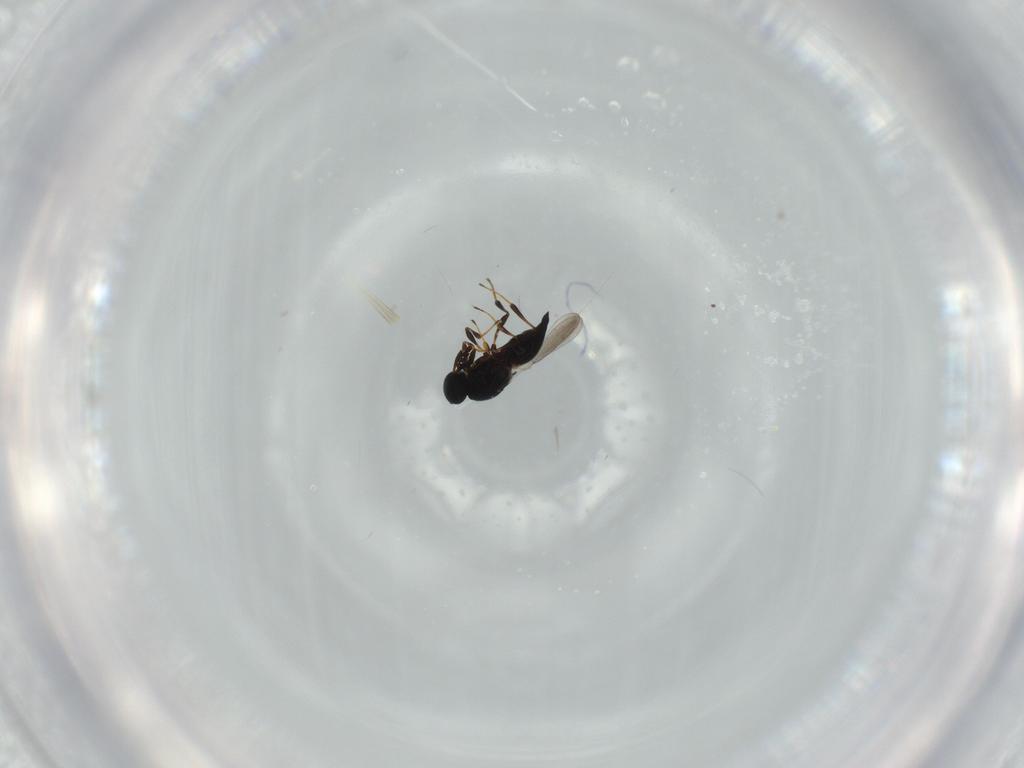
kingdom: Animalia
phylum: Arthropoda
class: Insecta
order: Hymenoptera
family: Platygastridae
